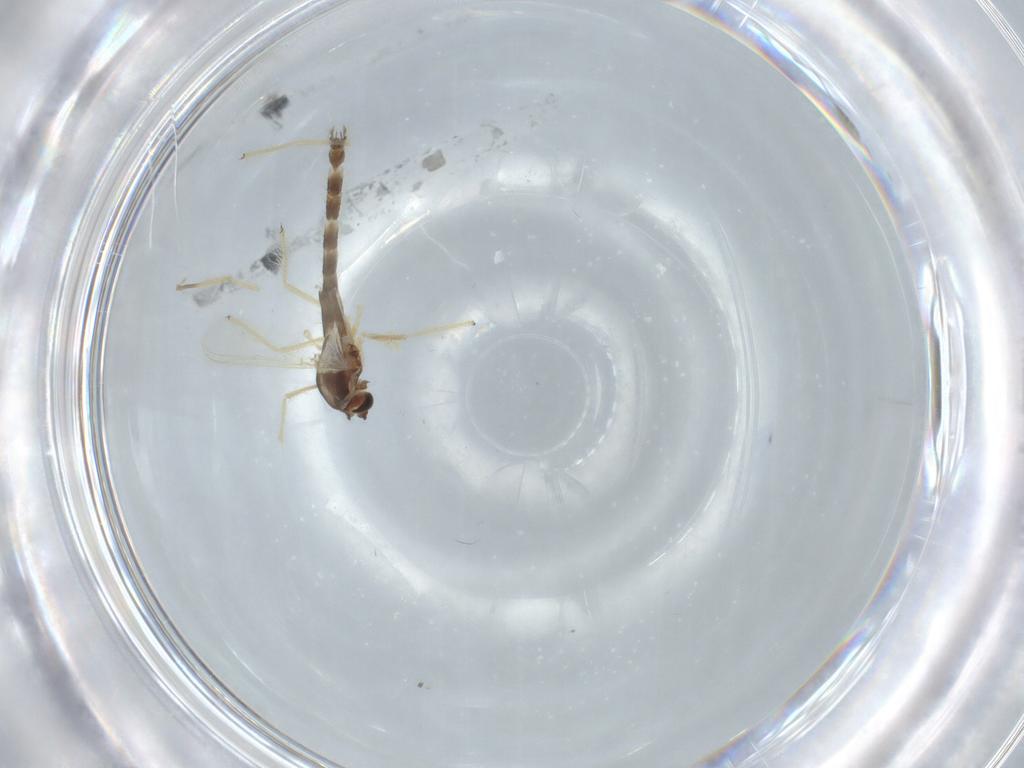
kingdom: Animalia
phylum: Arthropoda
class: Insecta
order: Diptera
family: Chironomidae
